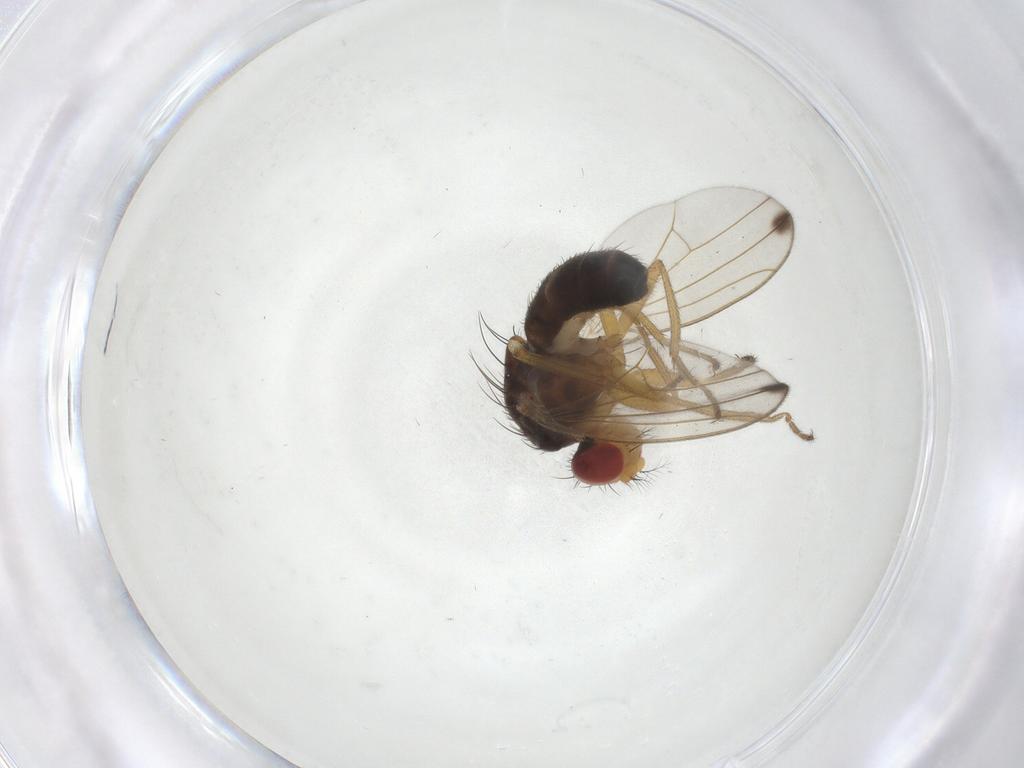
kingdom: Animalia
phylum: Arthropoda
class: Insecta
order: Diptera
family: Drosophilidae
